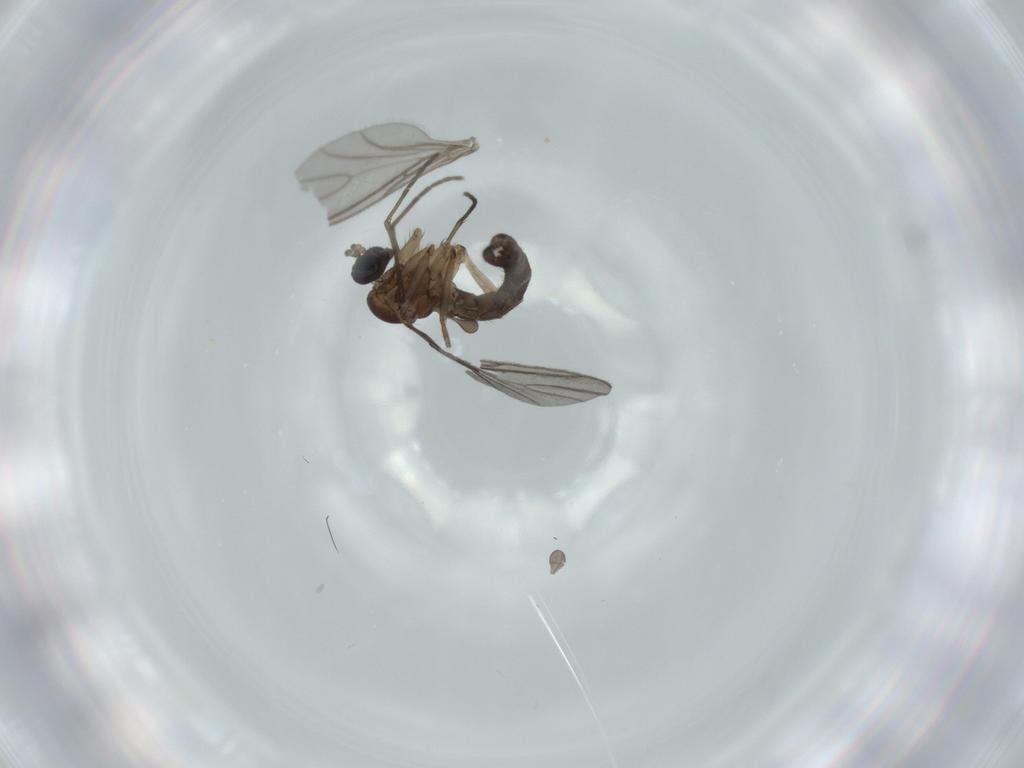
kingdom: Animalia
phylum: Arthropoda
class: Insecta
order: Diptera
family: Sciaridae
